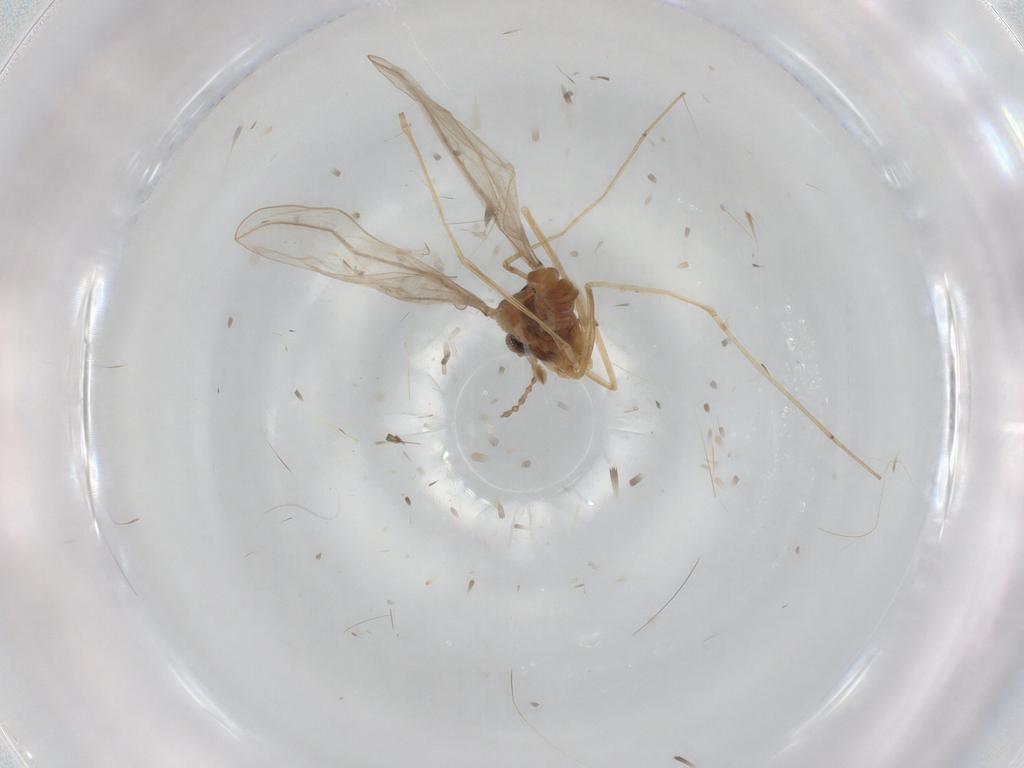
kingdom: Animalia
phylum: Arthropoda
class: Insecta
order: Diptera
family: Cecidomyiidae
